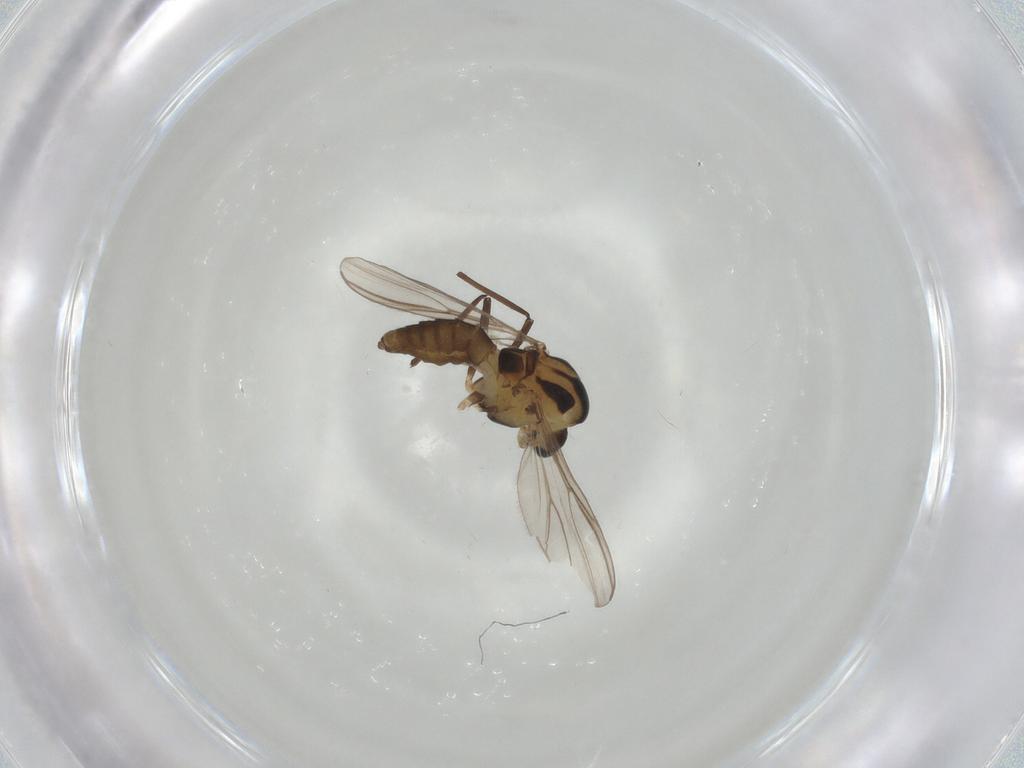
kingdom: Animalia
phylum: Arthropoda
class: Insecta
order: Diptera
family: Chironomidae
